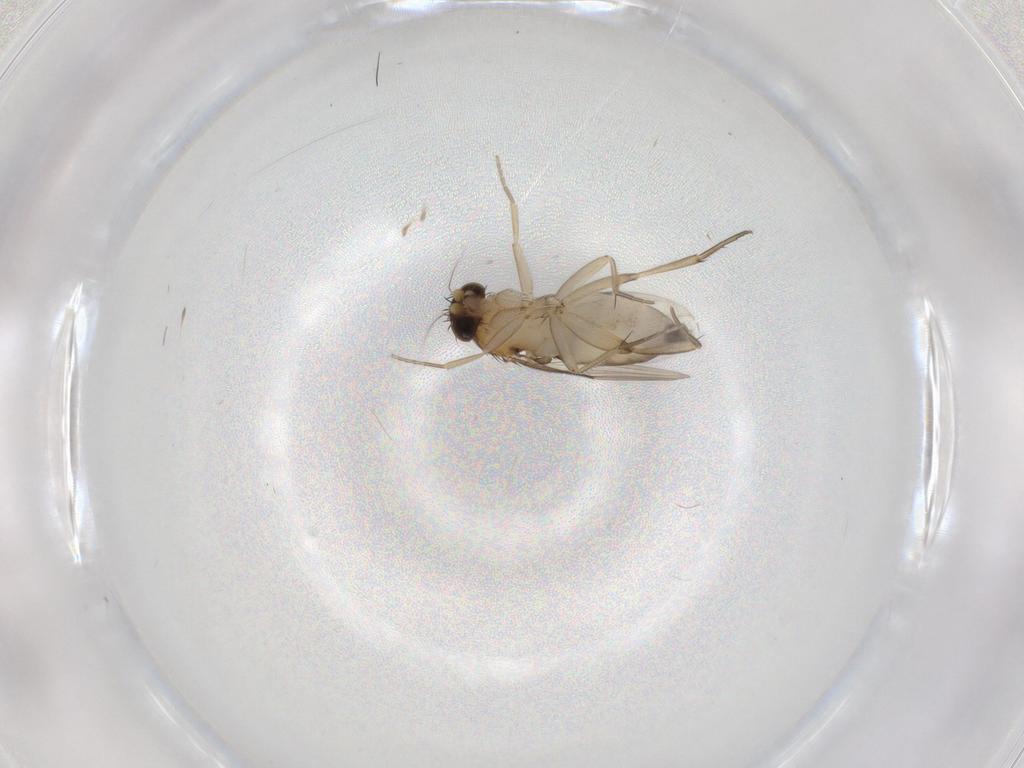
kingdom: Animalia
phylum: Arthropoda
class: Insecta
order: Diptera
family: Phoridae
